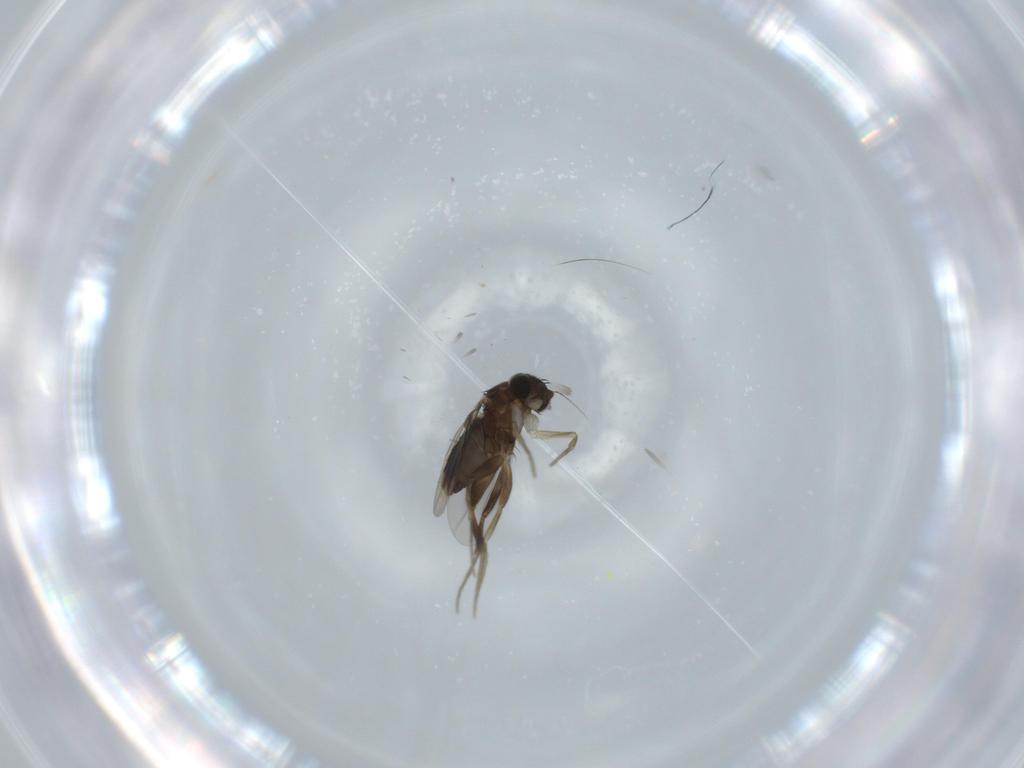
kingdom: Animalia
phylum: Arthropoda
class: Insecta
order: Diptera
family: Phoridae
